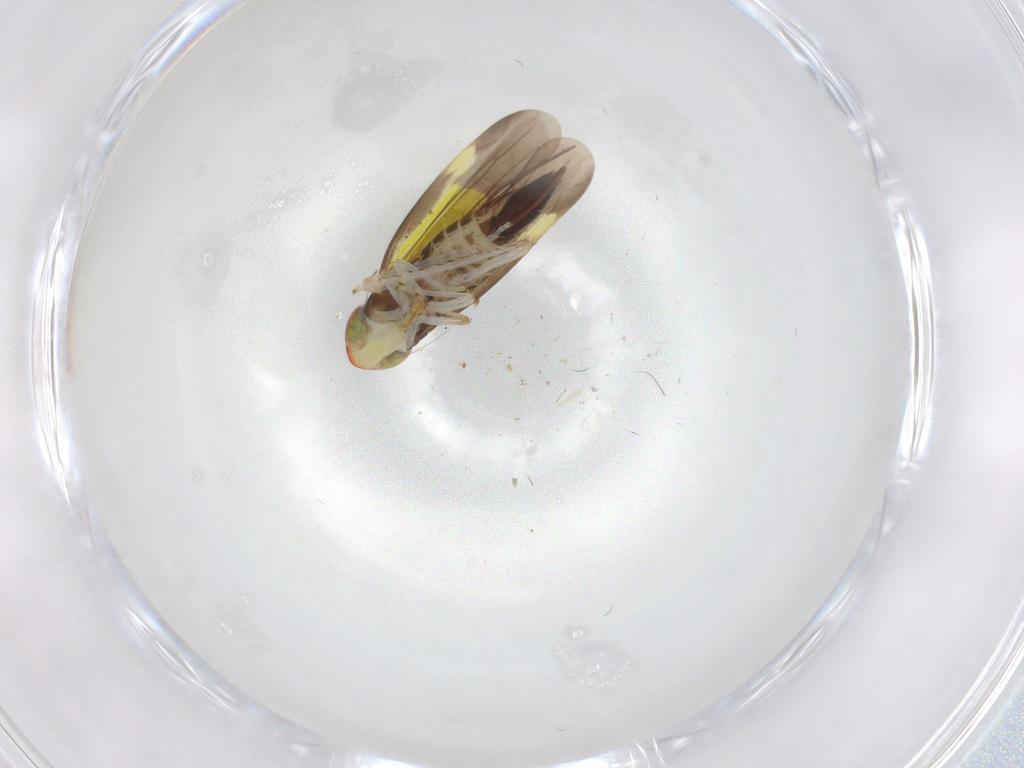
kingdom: Animalia
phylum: Arthropoda
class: Insecta
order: Hemiptera
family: Cicadellidae
